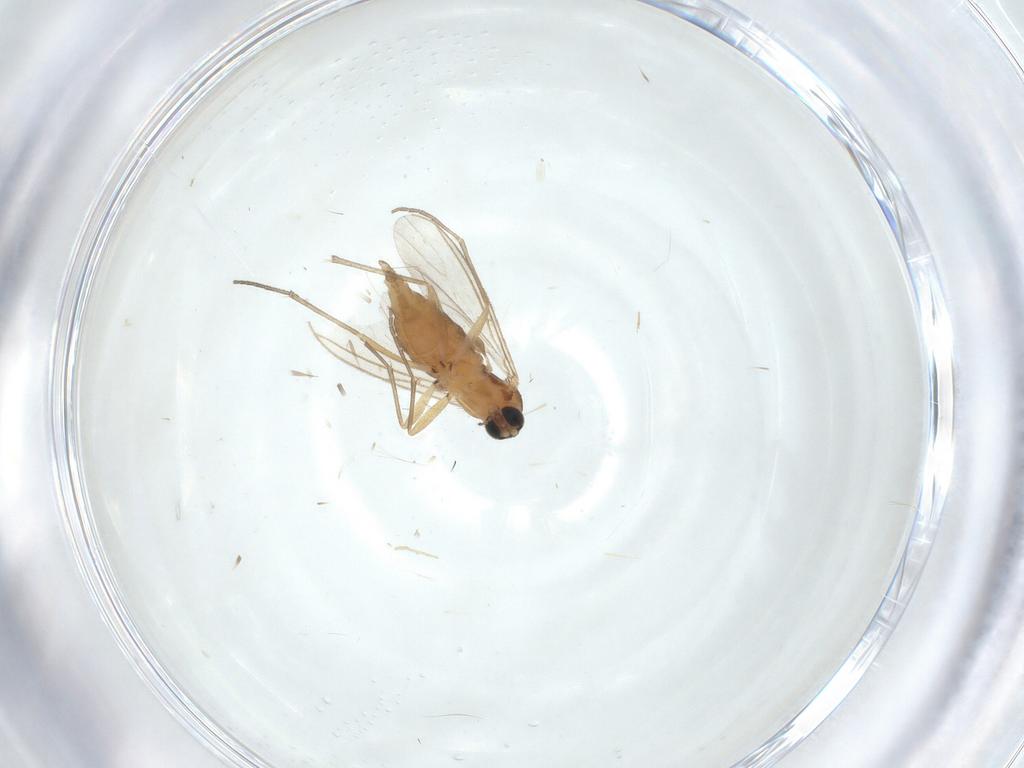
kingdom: Animalia
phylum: Arthropoda
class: Insecta
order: Diptera
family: Sciaridae
